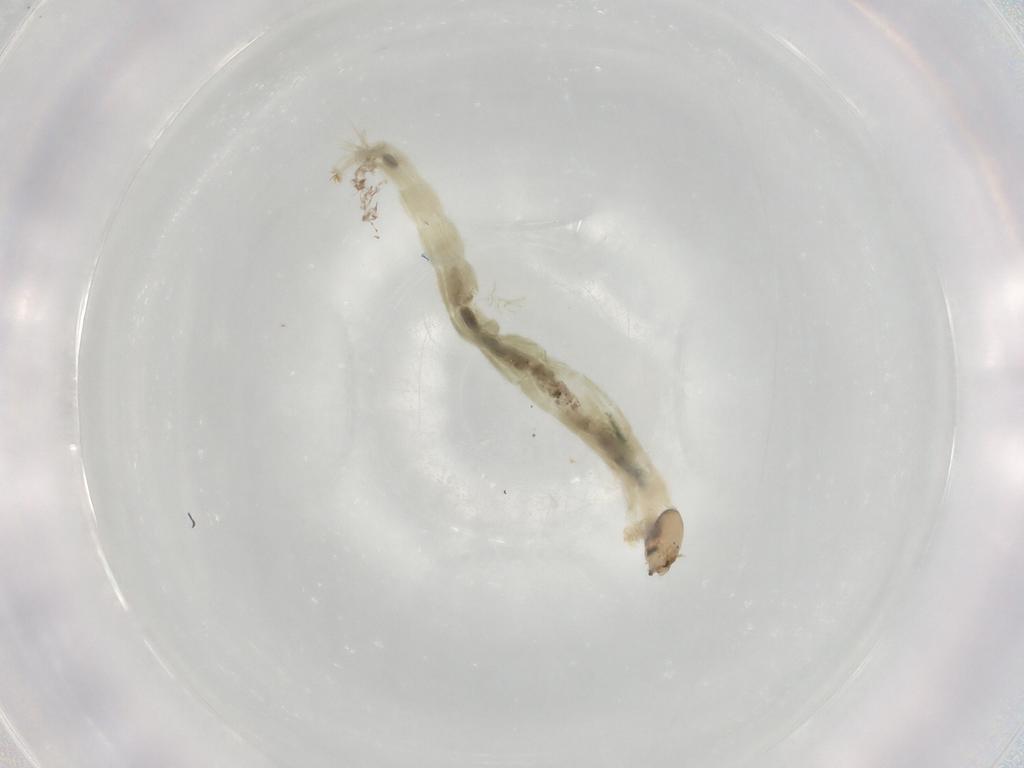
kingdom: Animalia
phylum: Arthropoda
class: Insecta
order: Diptera
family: Chironomidae
